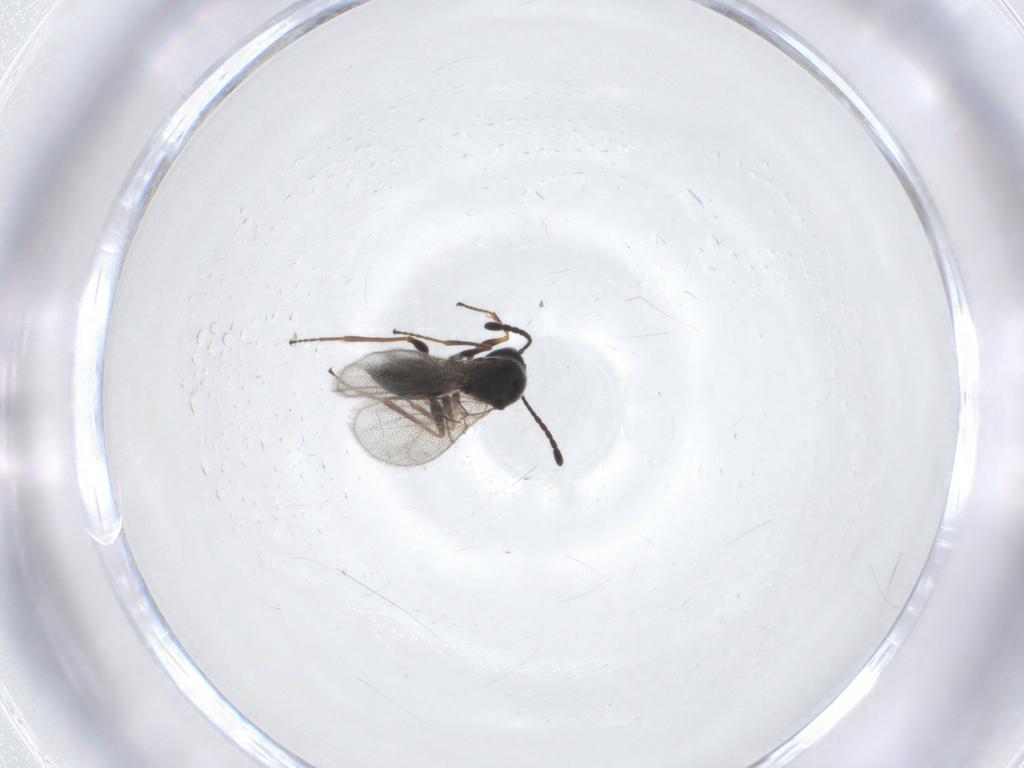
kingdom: Animalia
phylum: Arthropoda
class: Insecta
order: Hymenoptera
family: Figitidae
